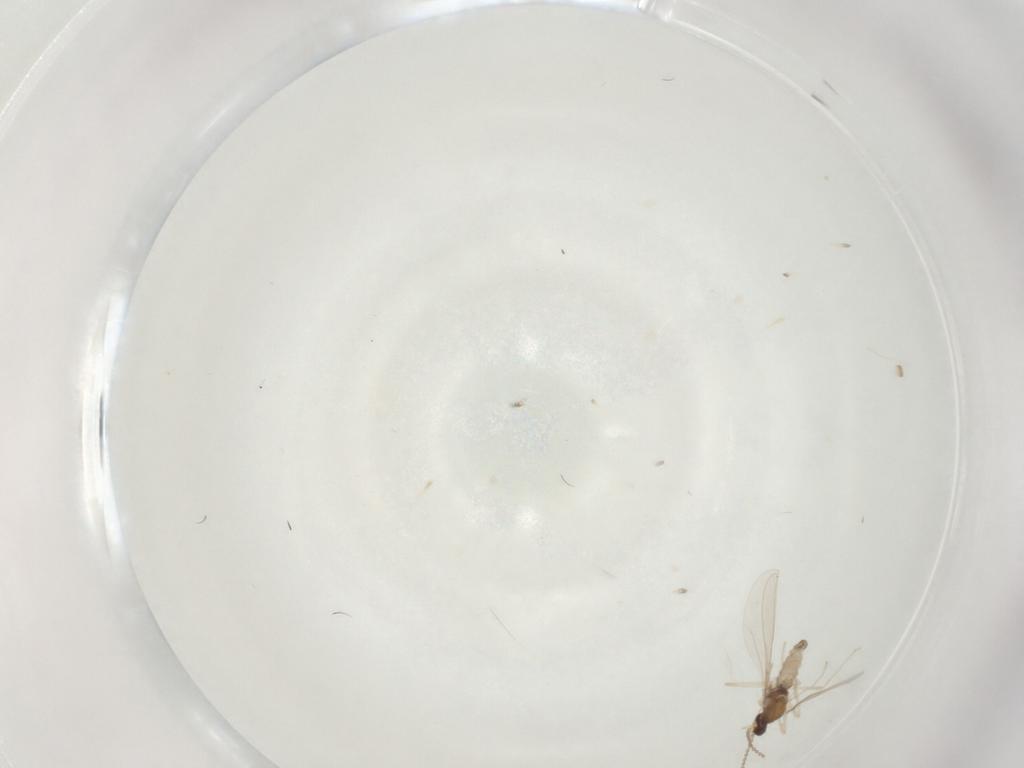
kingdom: Animalia
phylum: Arthropoda
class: Insecta
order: Diptera
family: Cecidomyiidae
